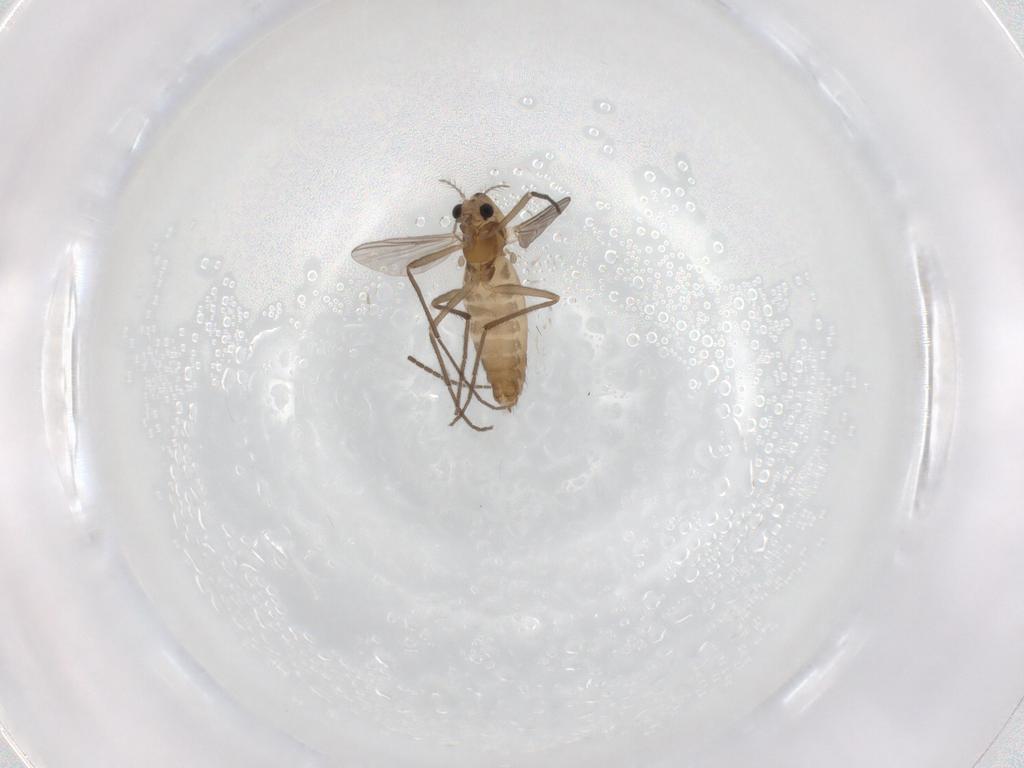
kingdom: Animalia
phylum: Arthropoda
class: Insecta
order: Diptera
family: Chironomidae
